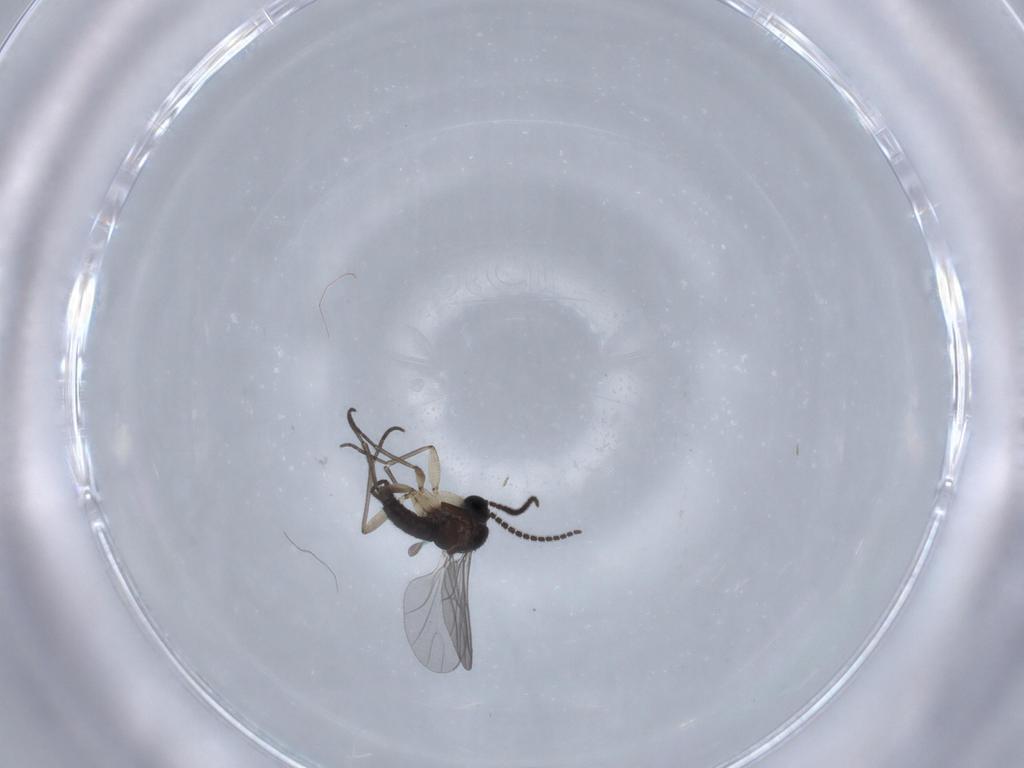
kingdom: Animalia
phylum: Arthropoda
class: Insecta
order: Diptera
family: Sciaridae
